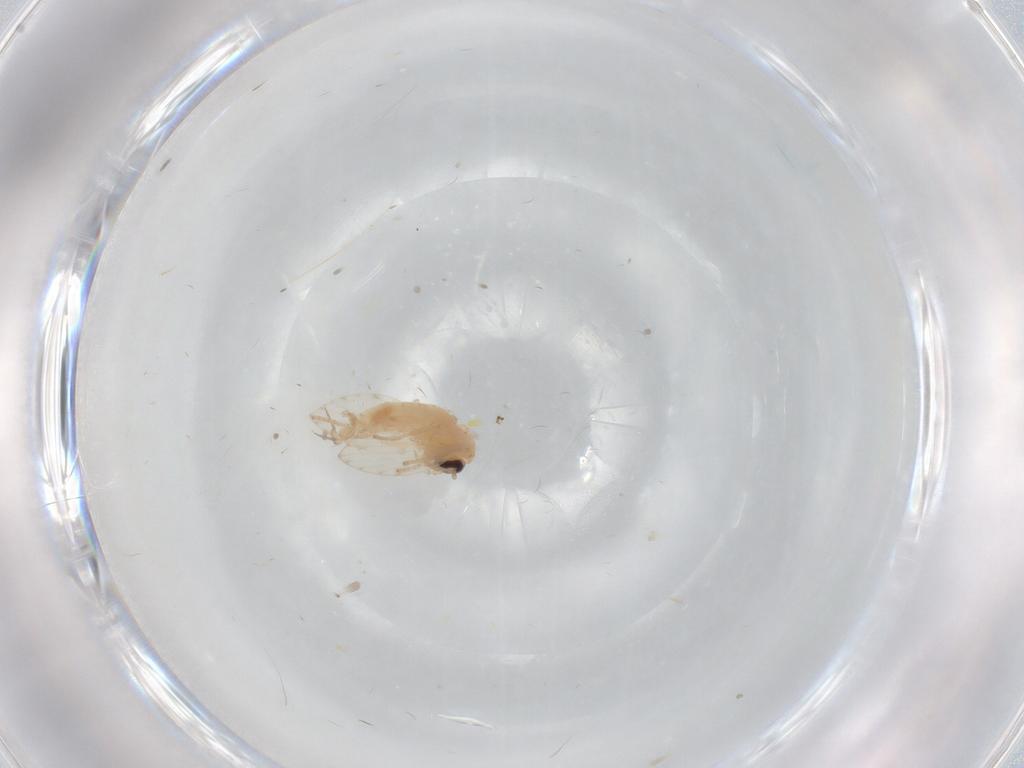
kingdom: Animalia
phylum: Arthropoda
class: Insecta
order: Diptera
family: Psychodidae
